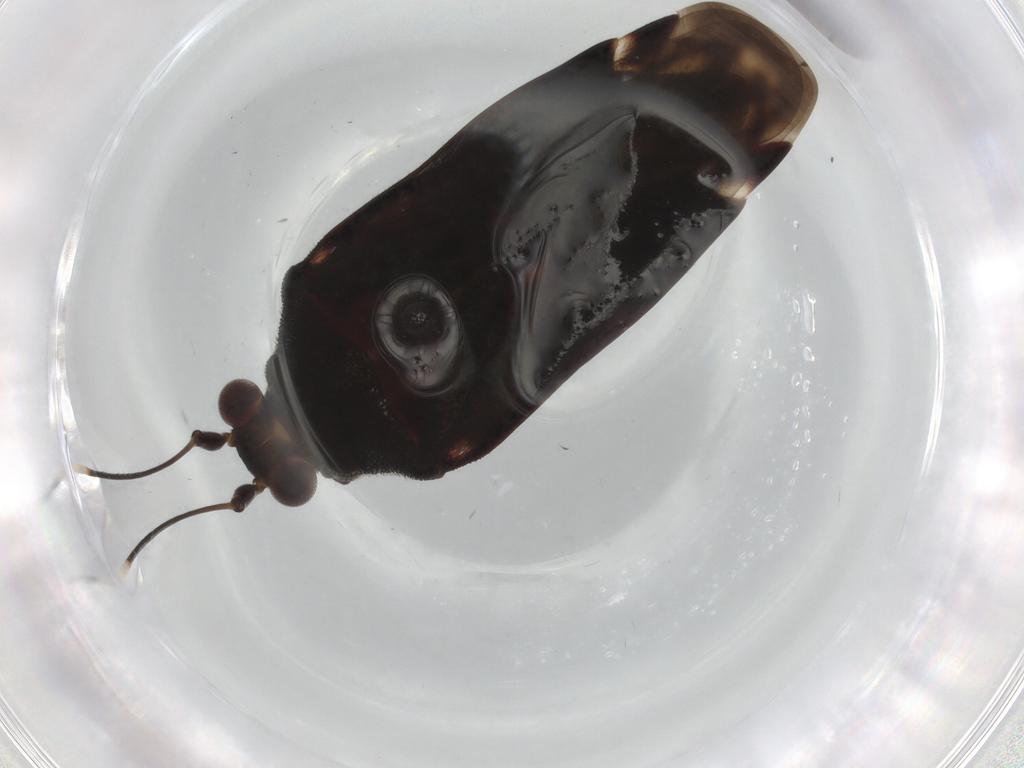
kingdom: Animalia
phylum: Arthropoda
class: Insecta
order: Hemiptera
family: Miridae
